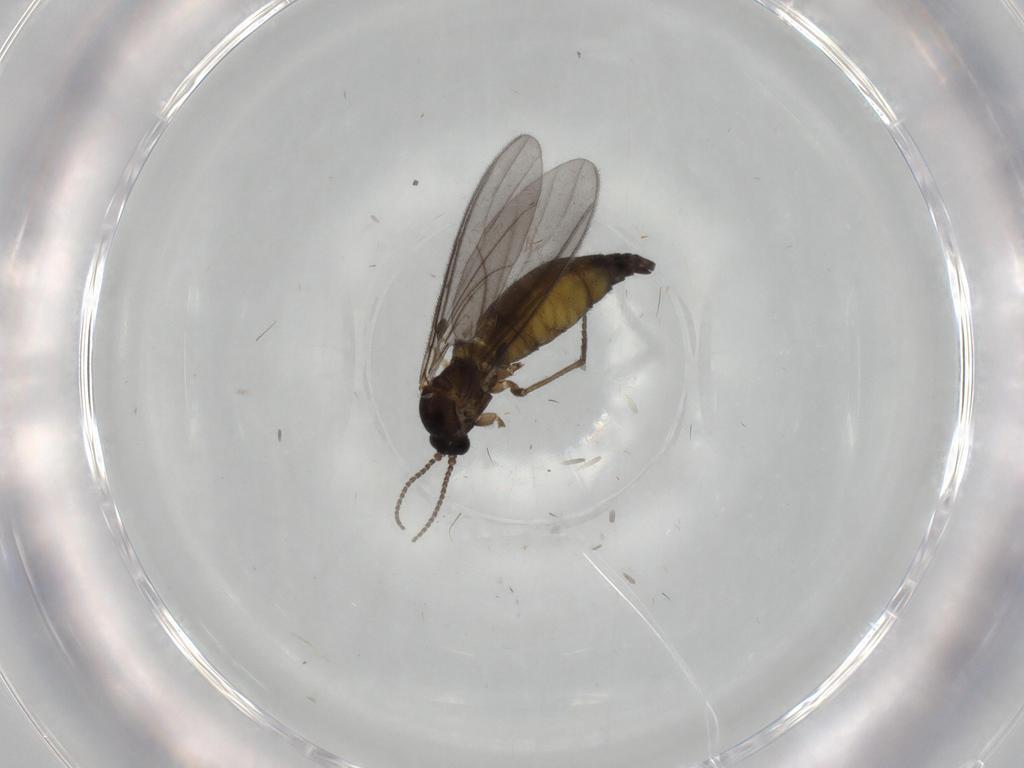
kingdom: Animalia
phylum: Arthropoda
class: Insecta
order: Diptera
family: Sciaridae
